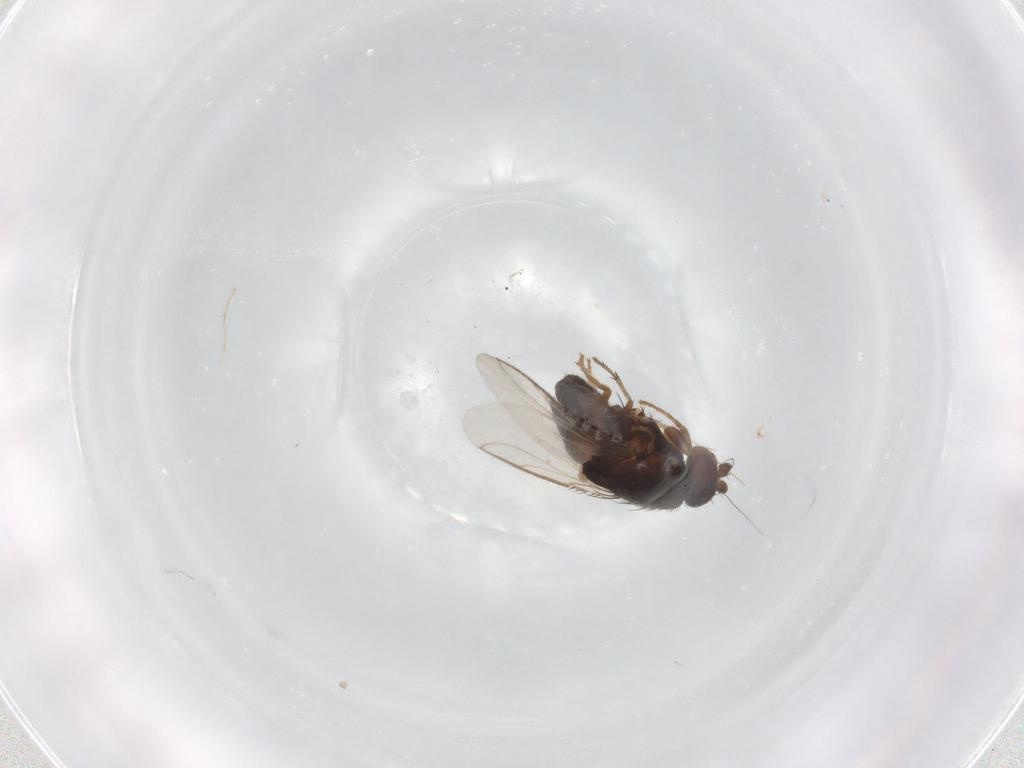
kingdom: Animalia
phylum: Arthropoda
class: Insecta
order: Diptera
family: Sphaeroceridae
